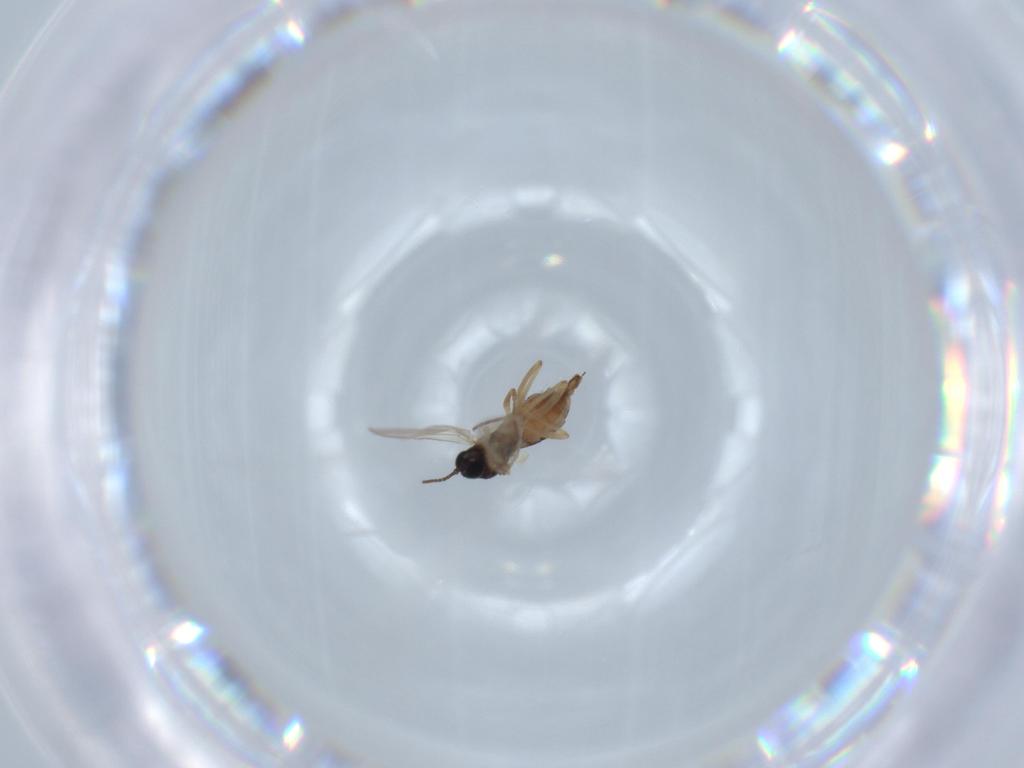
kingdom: Animalia
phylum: Arthropoda
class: Insecta
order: Diptera
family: Sciaridae
